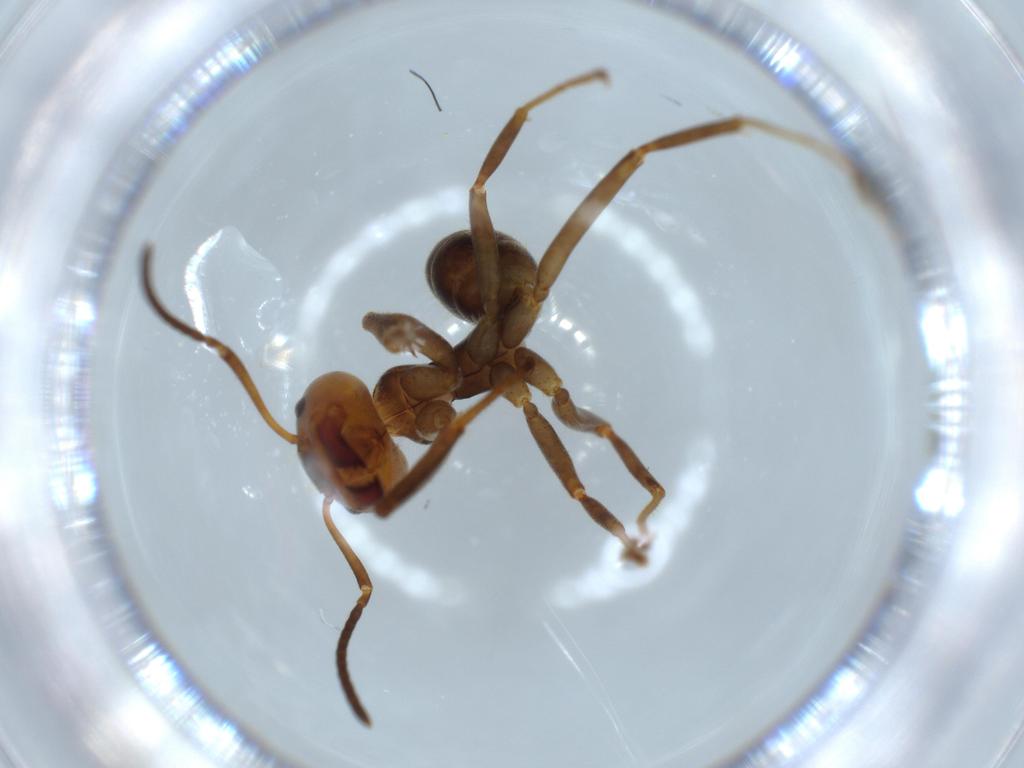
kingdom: Animalia
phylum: Arthropoda
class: Insecta
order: Hymenoptera
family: Formicidae
